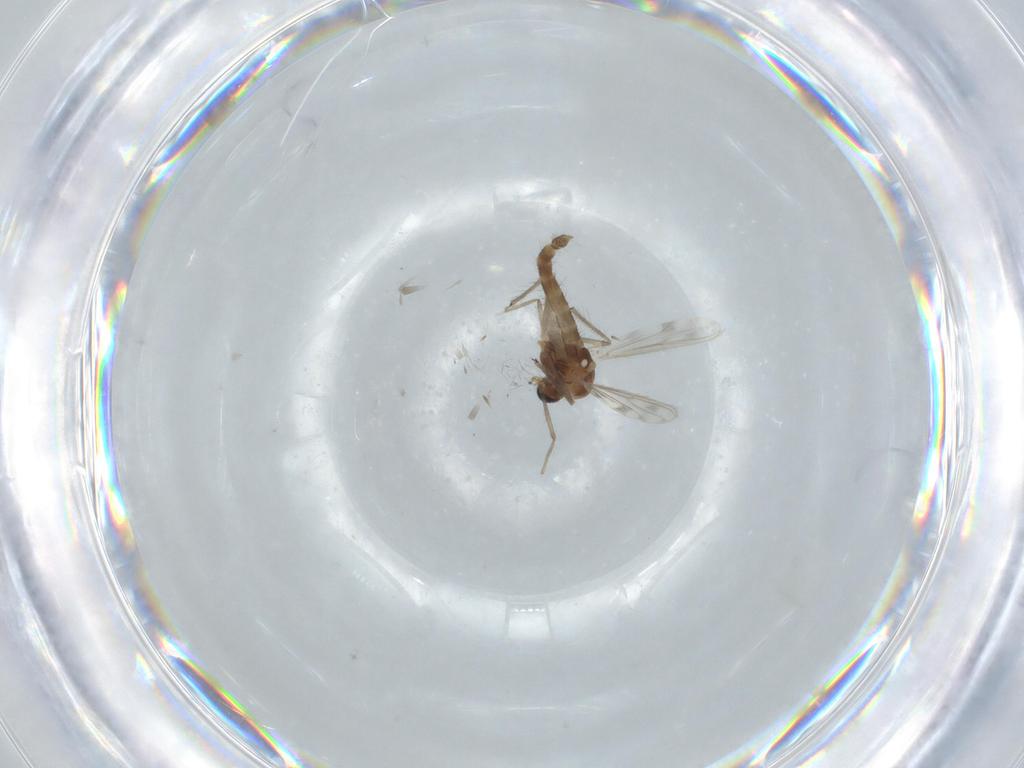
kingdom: Animalia
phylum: Arthropoda
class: Insecta
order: Diptera
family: Chironomidae
